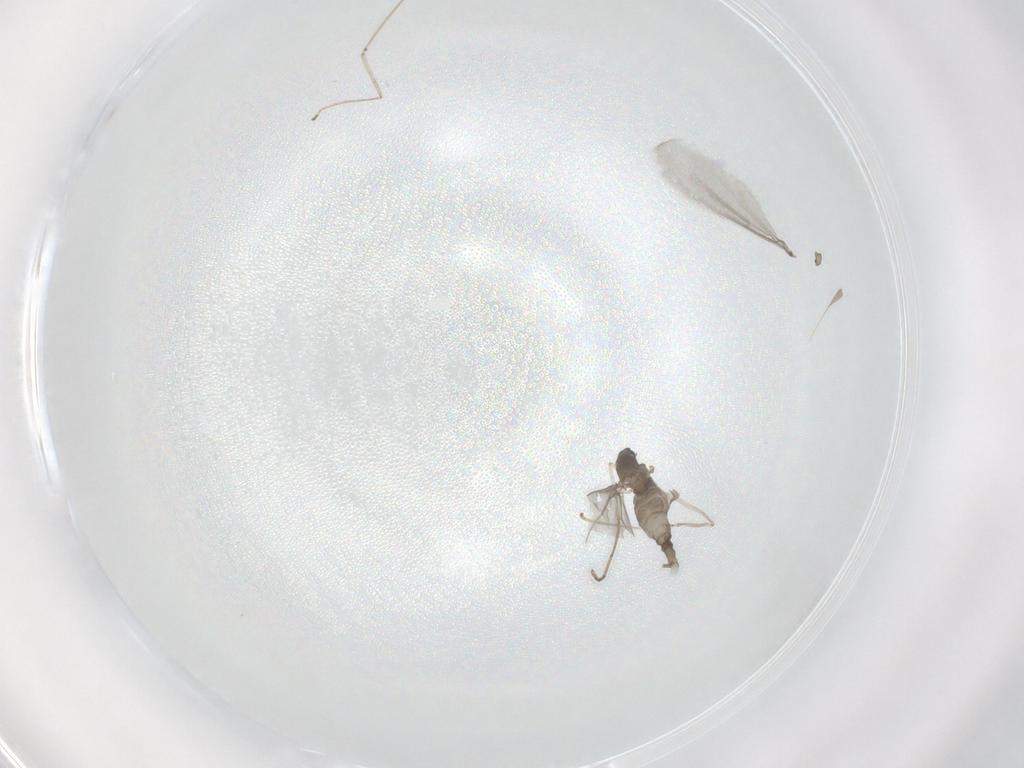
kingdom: Animalia
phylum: Arthropoda
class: Insecta
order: Diptera
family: Cecidomyiidae
